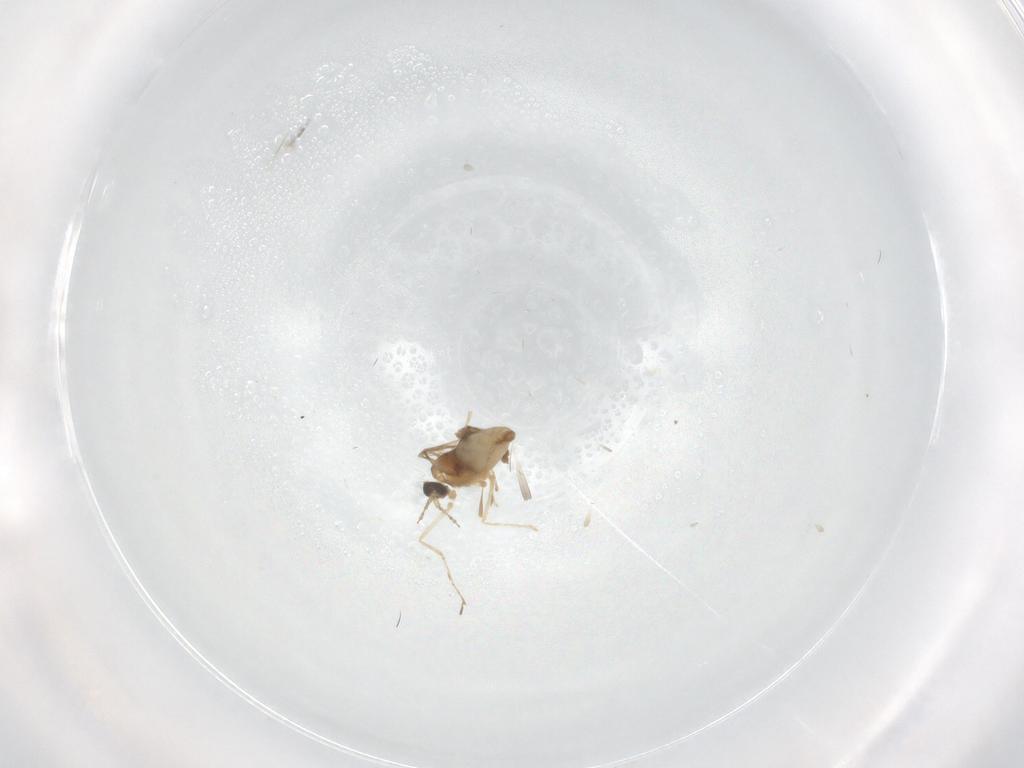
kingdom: Animalia
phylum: Arthropoda
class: Insecta
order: Diptera
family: Cecidomyiidae
